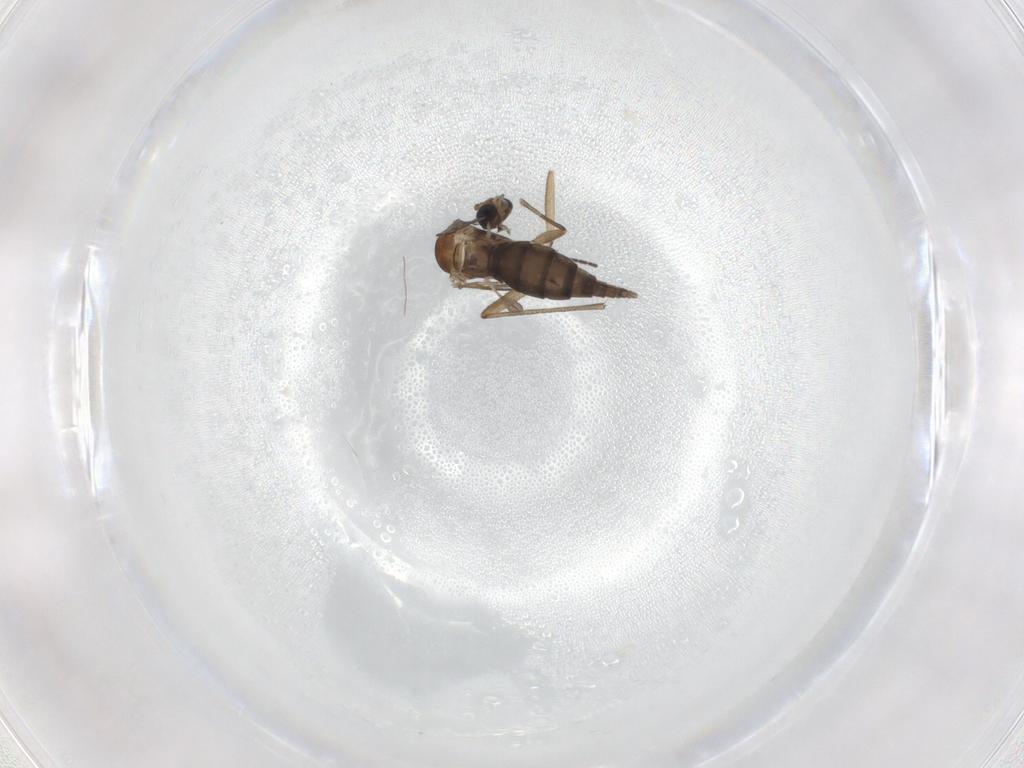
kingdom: Animalia
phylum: Arthropoda
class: Insecta
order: Diptera
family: Sciaridae
